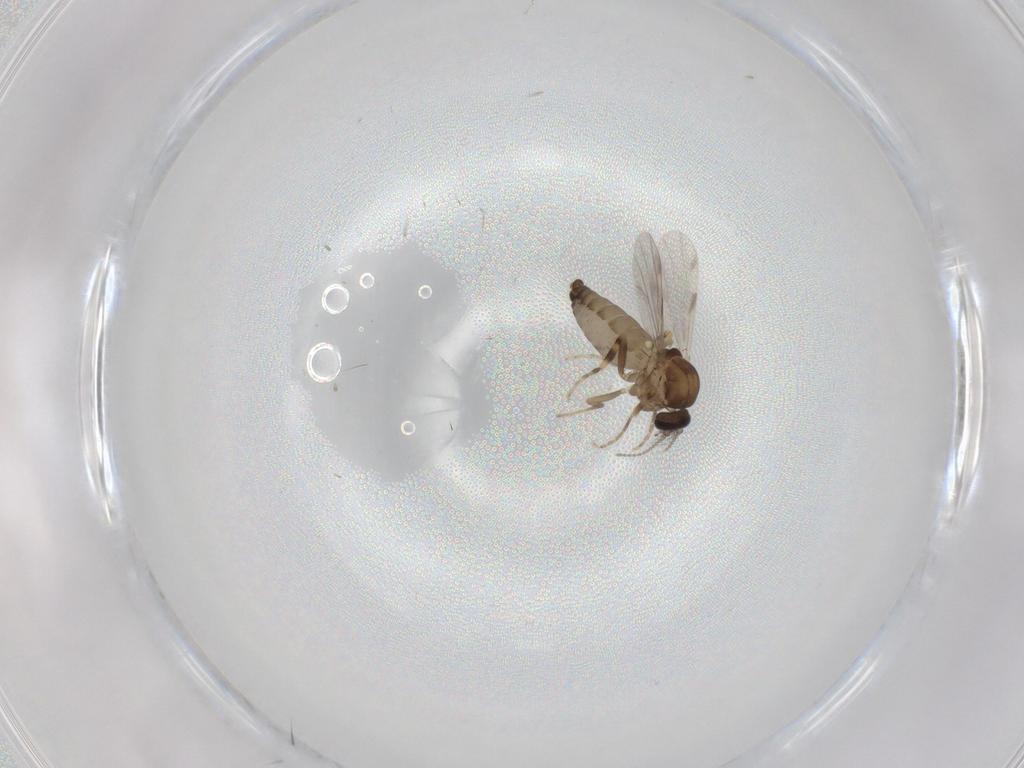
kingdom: Animalia
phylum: Arthropoda
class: Insecta
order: Diptera
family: Ceratopogonidae
